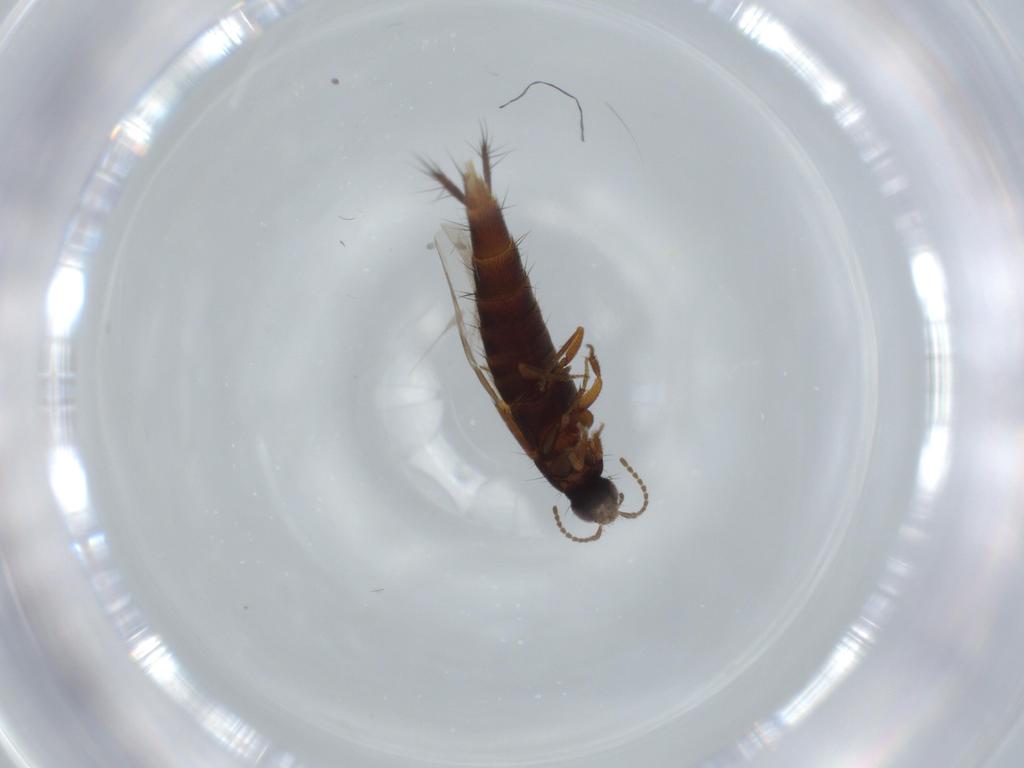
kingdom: Animalia
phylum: Arthropoda
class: Insecta
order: Coleoptera
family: Staphylinidae
